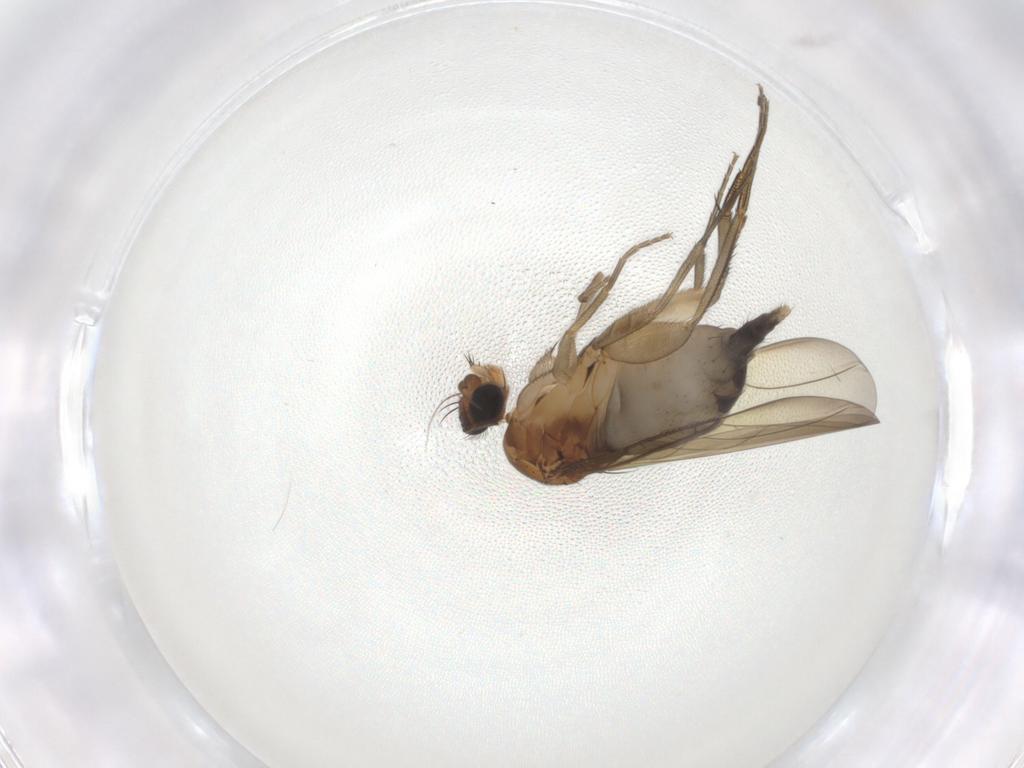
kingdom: Animalia
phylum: Arthropoda
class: Insecta
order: Diptera
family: Phoridae
